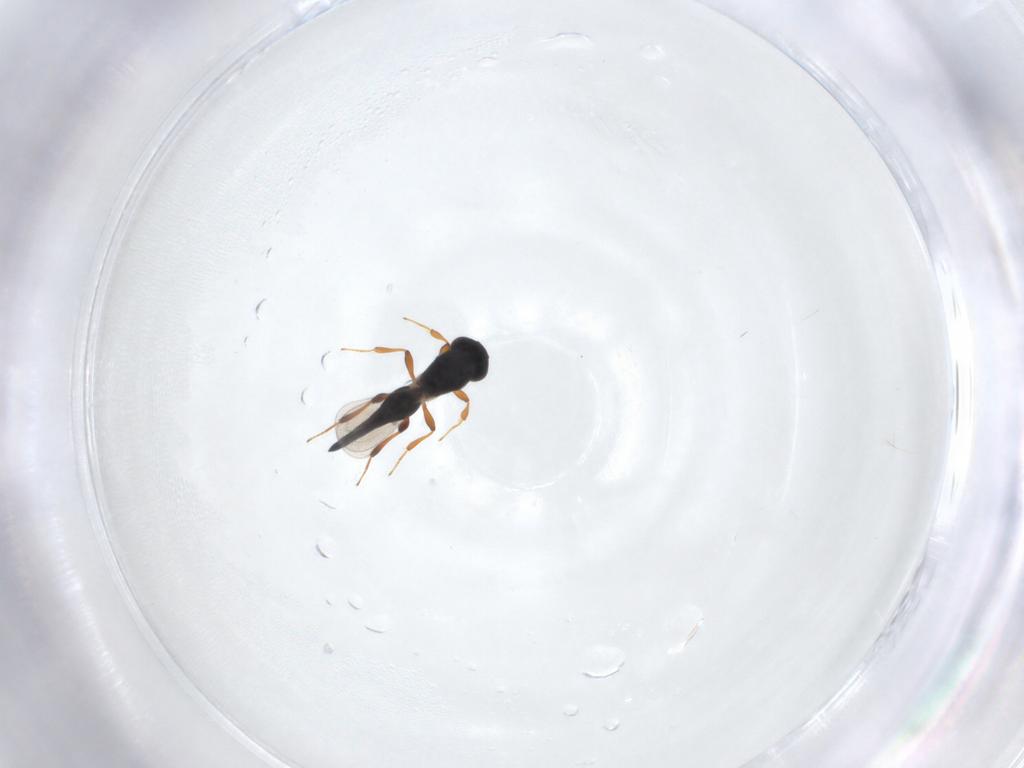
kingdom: Animalia
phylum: Arthropoda
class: Insecta
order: Hymenoptera
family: Platygastridae
